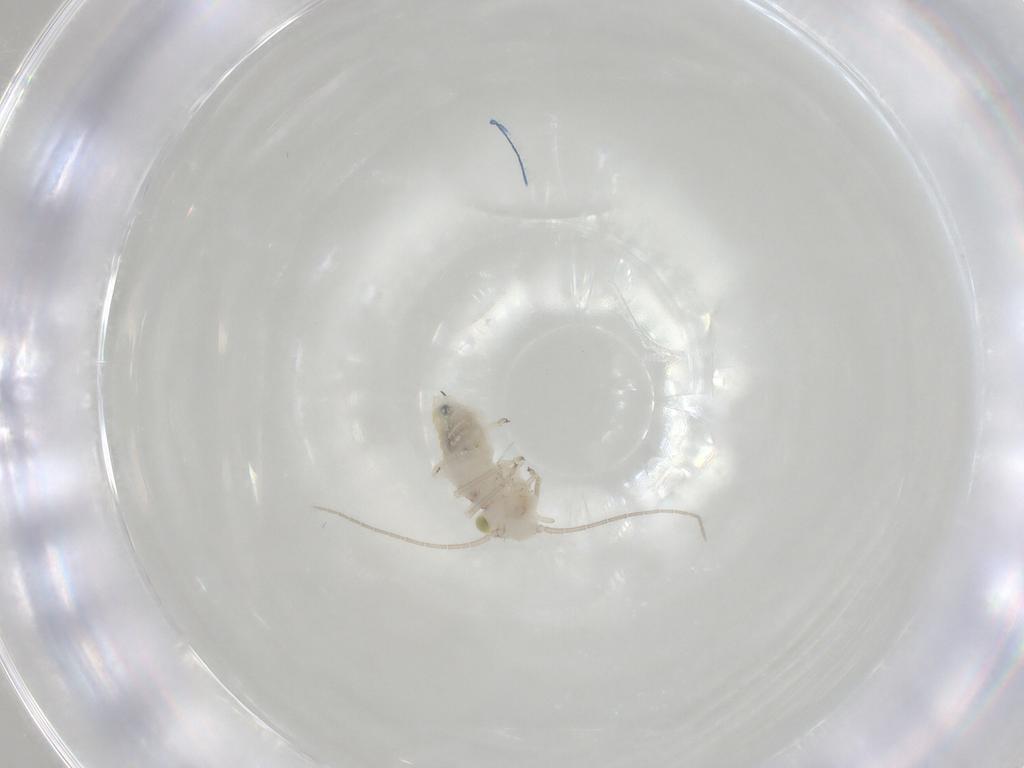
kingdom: Animalia
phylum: Arthropoda
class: Insecta
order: Psocodea
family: Caeciliusidae
